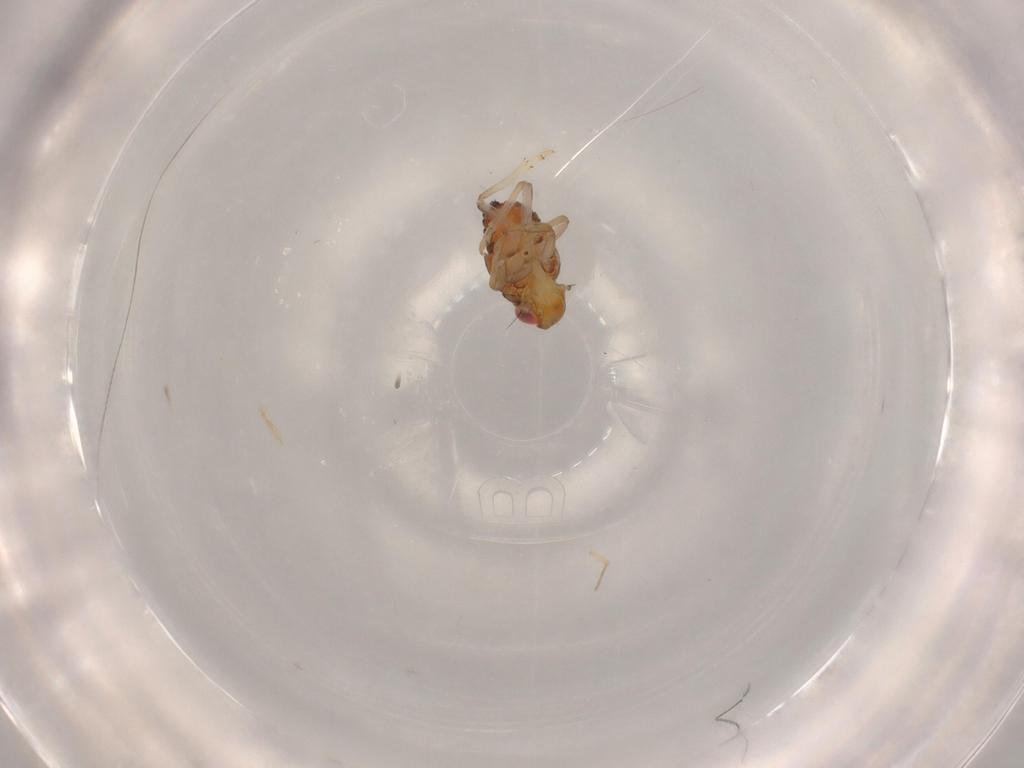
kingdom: Animalia
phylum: Arthropoda
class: Insecta
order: Hemiptera
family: Issidae
